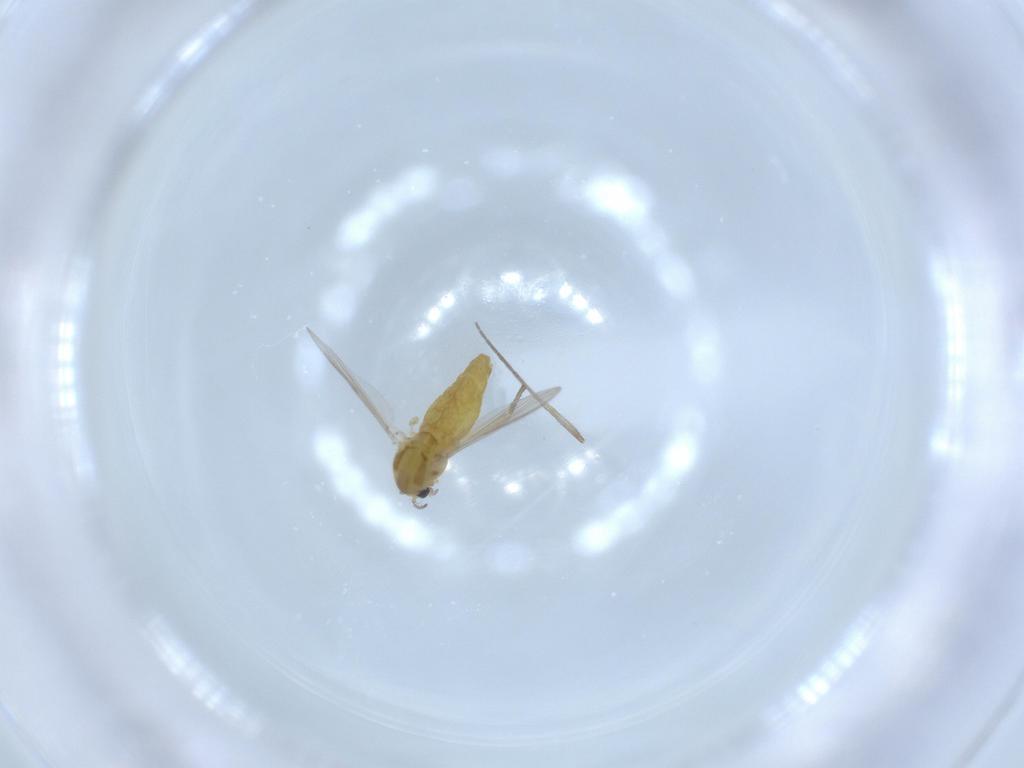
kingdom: Animalia
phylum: Arthropoda
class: Insecta
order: Diptera
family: Chironomidae
